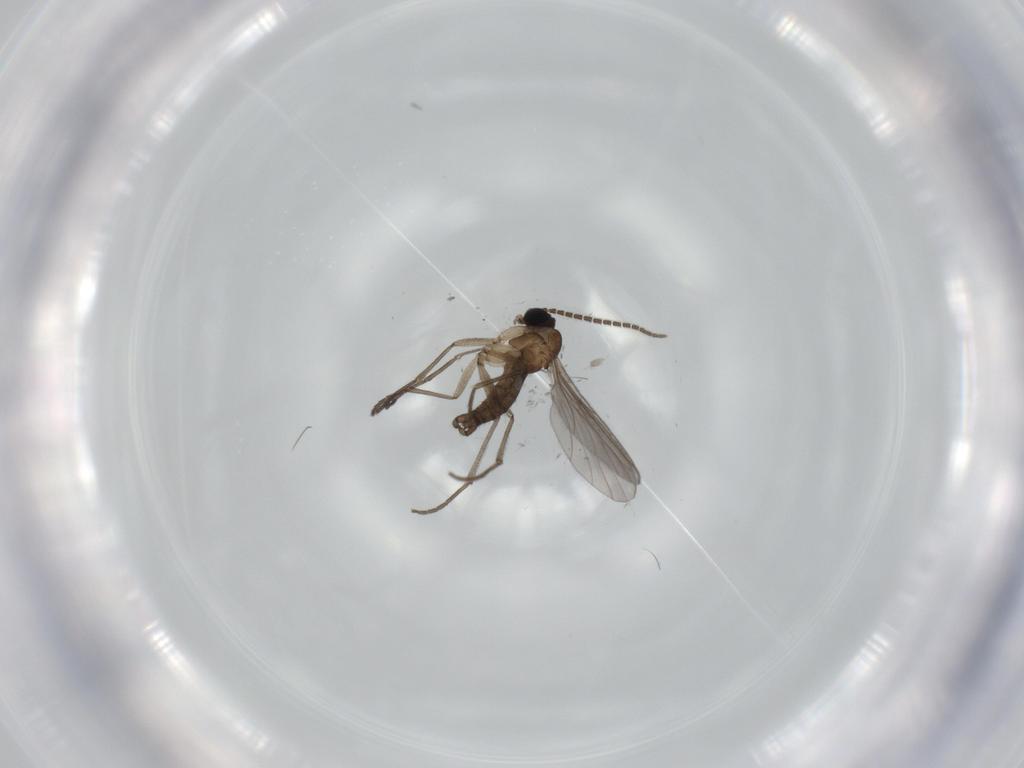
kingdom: Animalia
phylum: Arthropoda
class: Insecta
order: Diptera
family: Sciaridae
